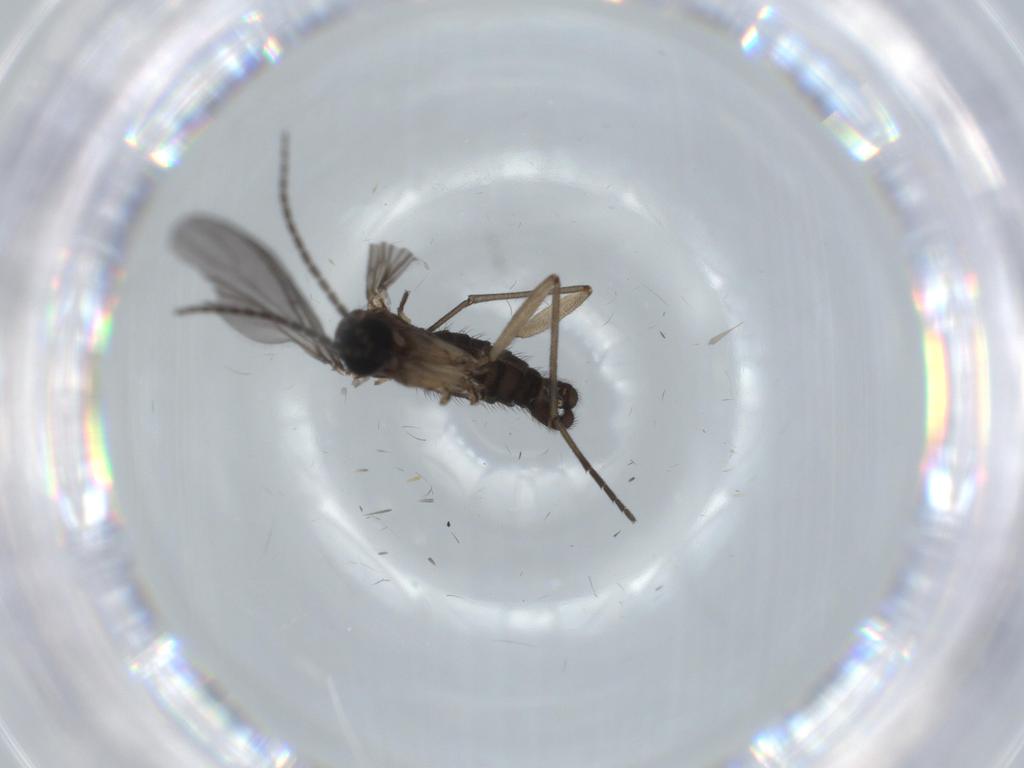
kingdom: Animalia
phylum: Arthropoda
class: Insecta
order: Diptera
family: Sciaridae
